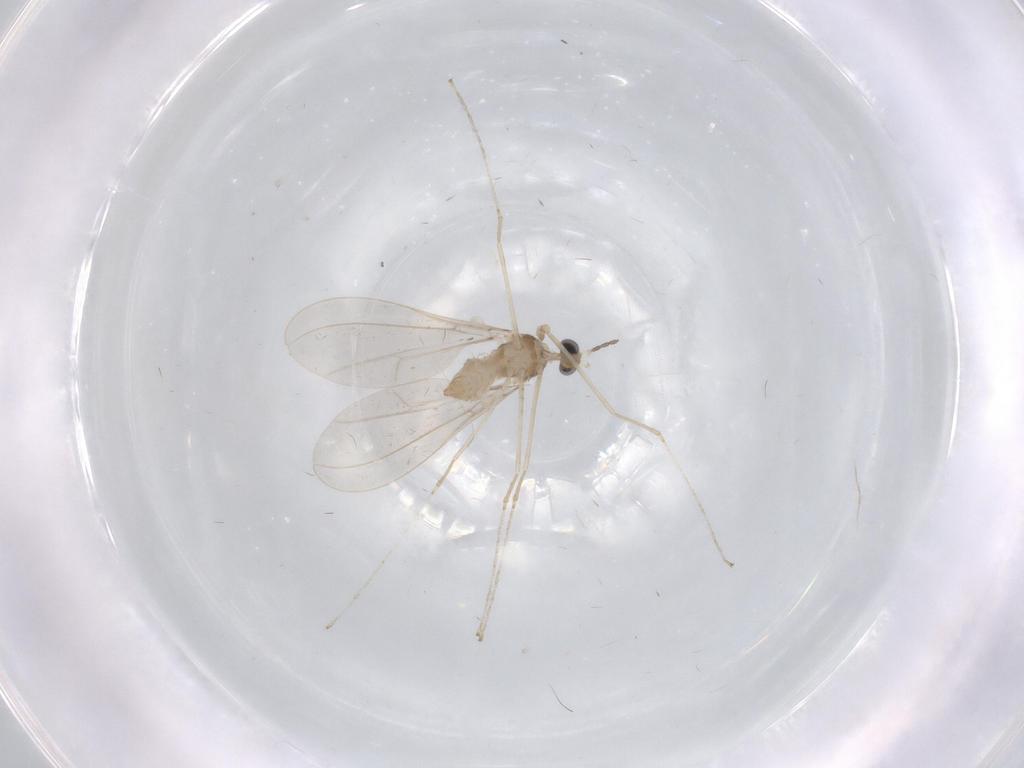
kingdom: Animalia
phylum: Arthropoda
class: Insecta
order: Diptera
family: Cecidomyiidae
